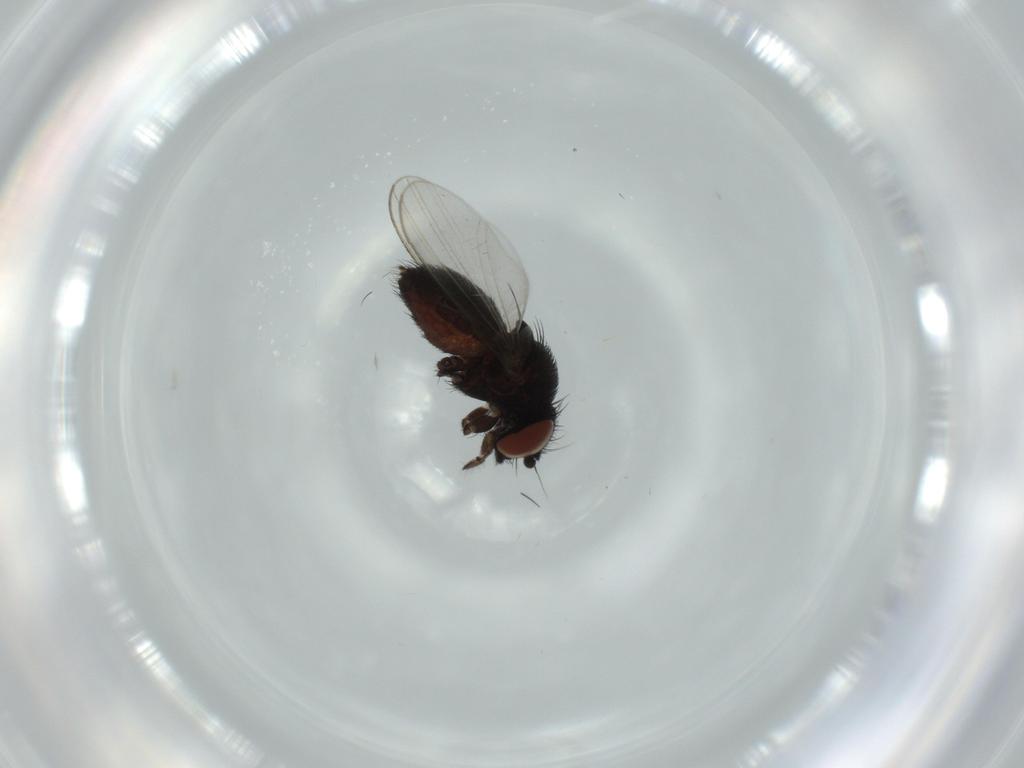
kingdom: Animalia
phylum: Arthropoda
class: Insecta
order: Diptera
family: Milichiidae
